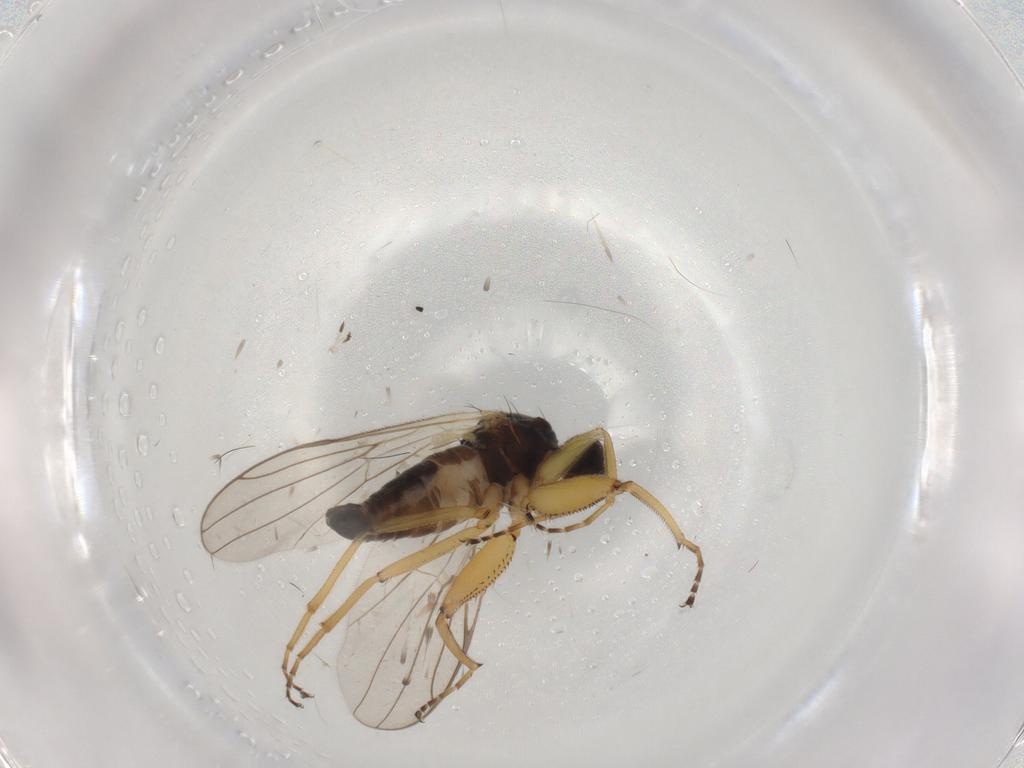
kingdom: Animalia
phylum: Arthropoda
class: Insecta
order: Diptera
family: Hybotidae
